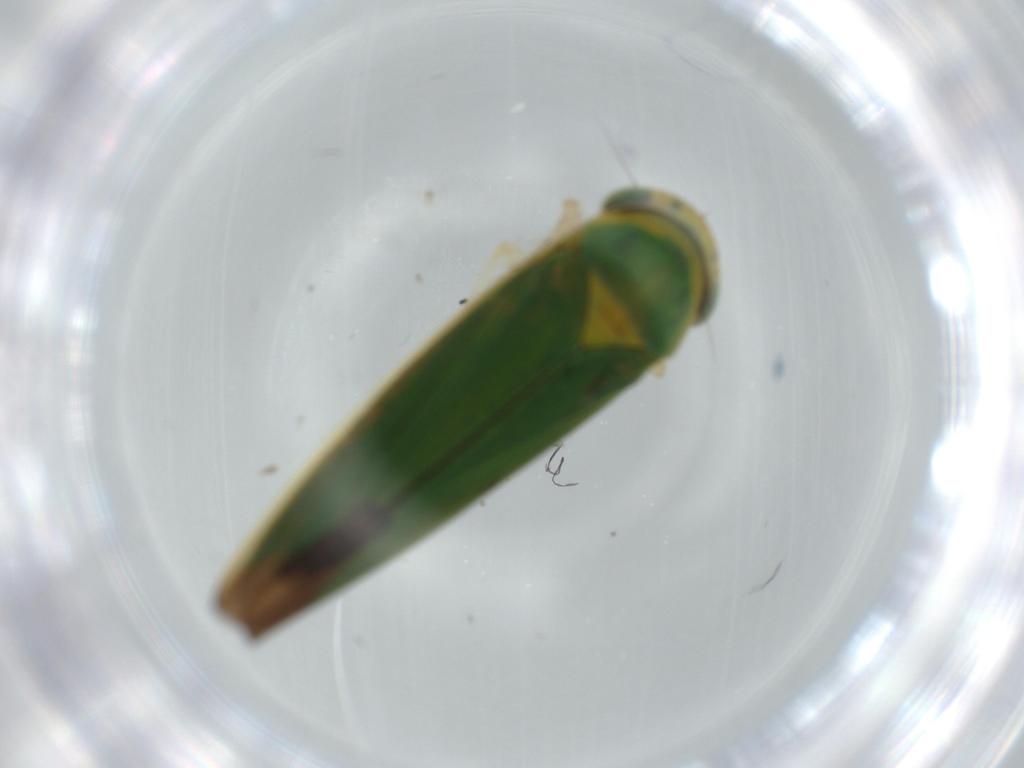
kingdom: Animalia
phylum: Arthropoda
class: Insecta
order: Hemiptera
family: Cicadellidae
